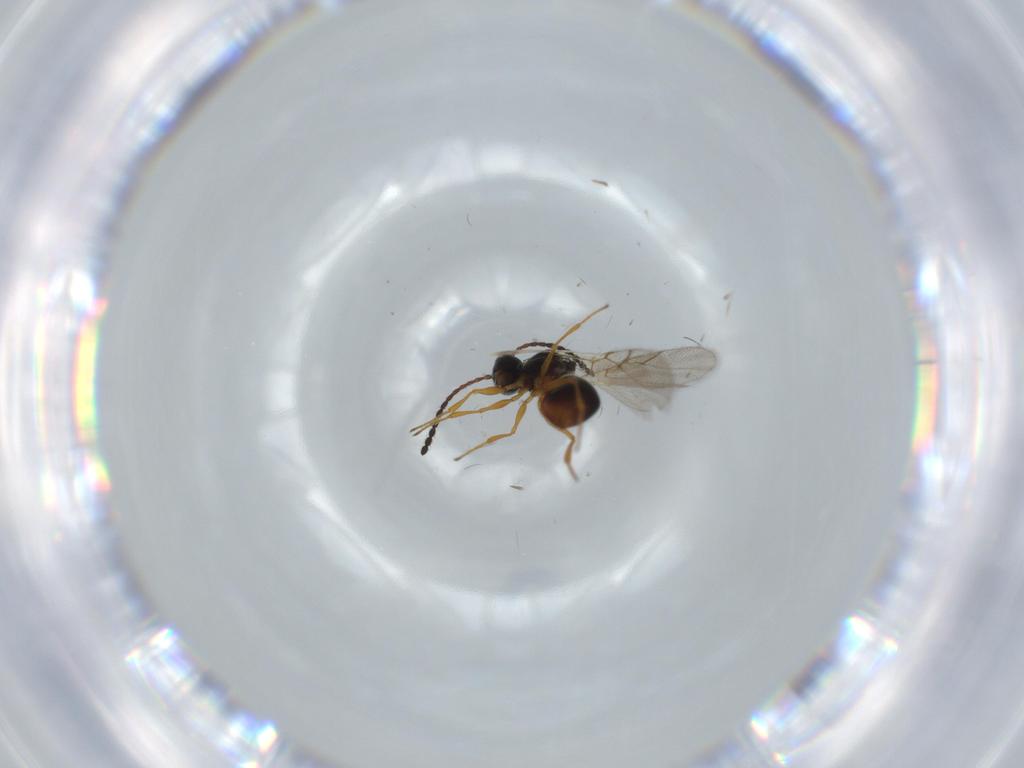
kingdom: Animalia
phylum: Arthropoda
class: Insecta
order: Hymenoptera
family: Figitidae
